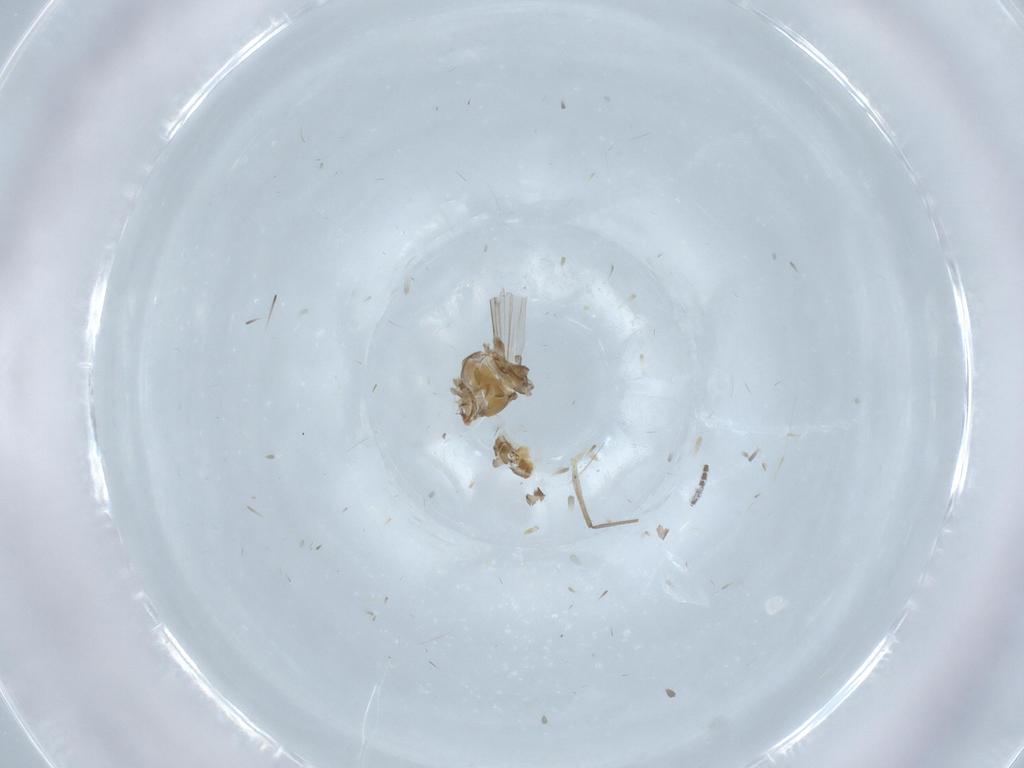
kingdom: Animalia
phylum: Arthropoda
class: Insecta
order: Diptera
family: Chironomidae
